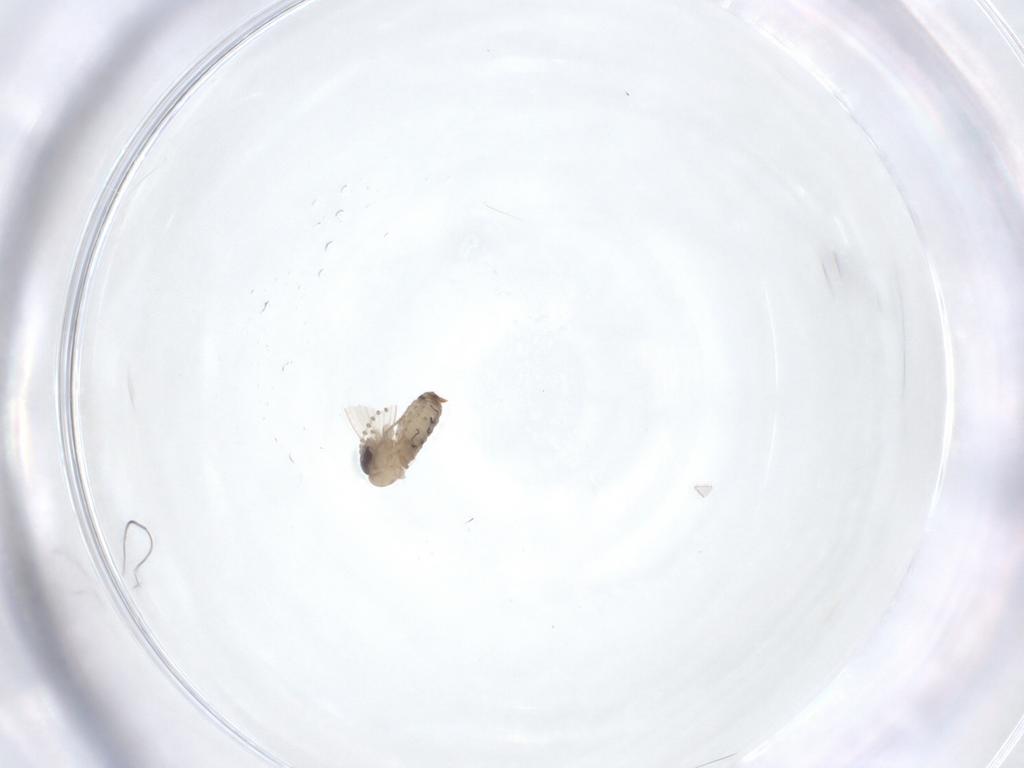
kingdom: Animalia
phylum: Arthropoda
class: Insecta
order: Diptera
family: Psychodidae
